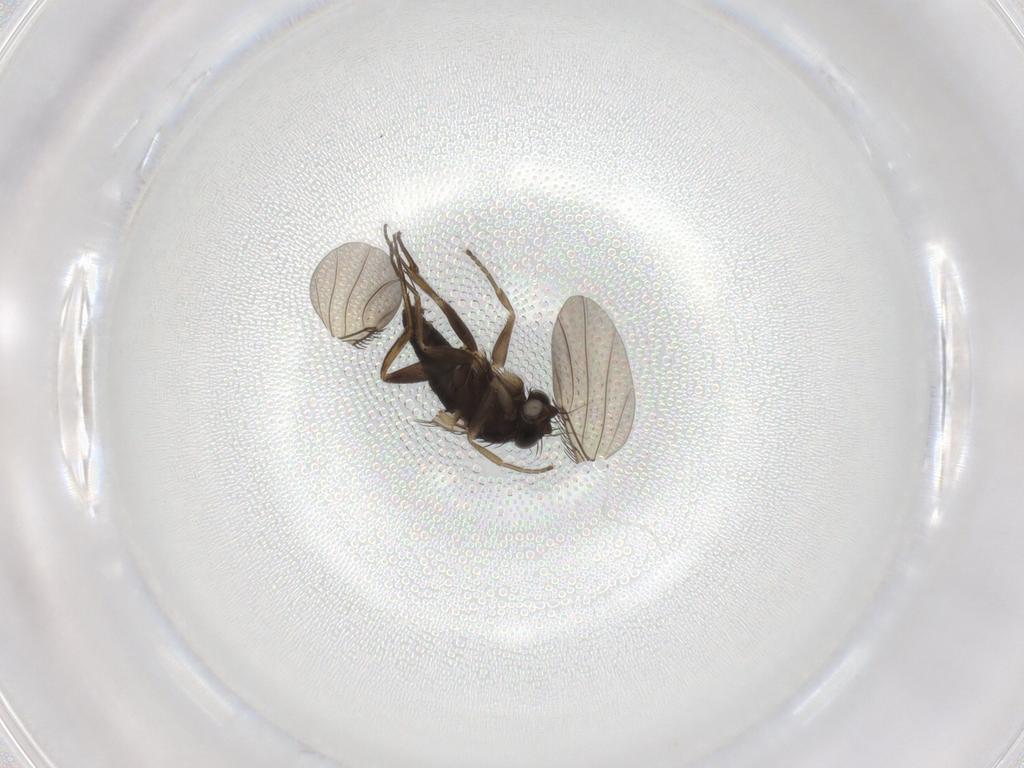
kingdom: Animalia
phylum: Arthropoda
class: Insecta
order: Diptera
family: Phoridae
